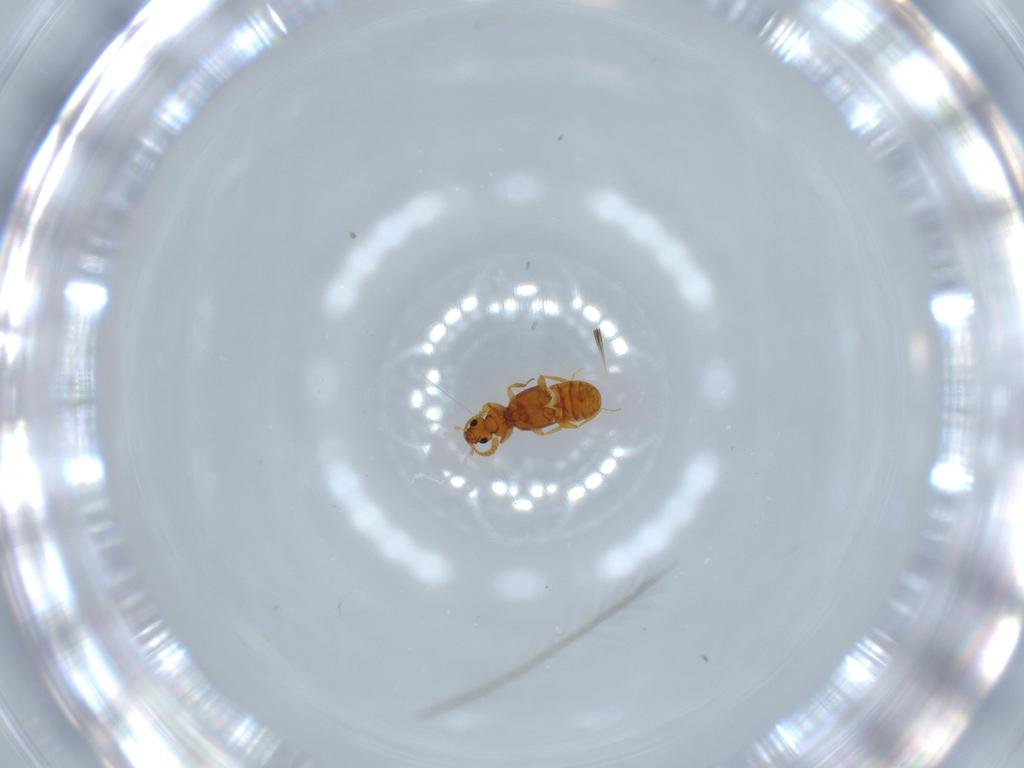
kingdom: Animalia
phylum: Arthropoda
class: Insecta
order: Coleoptera
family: Staphylinidae
